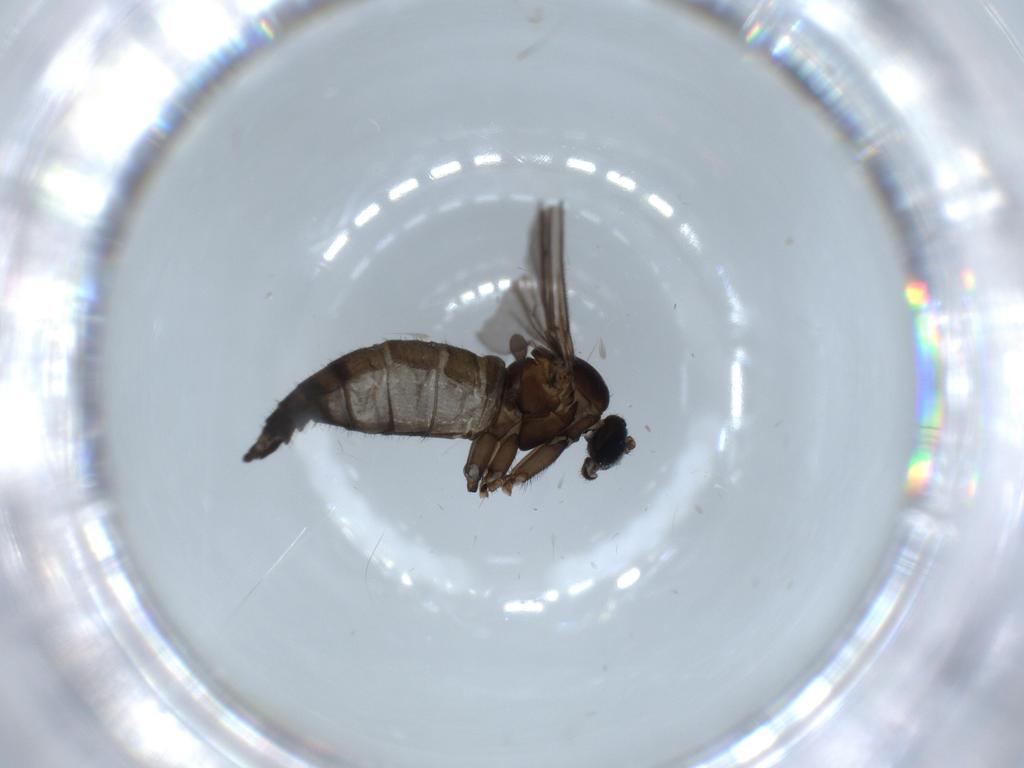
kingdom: Animalia
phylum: Arthropoda
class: Insecta
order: Diptera
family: Sciaridae
